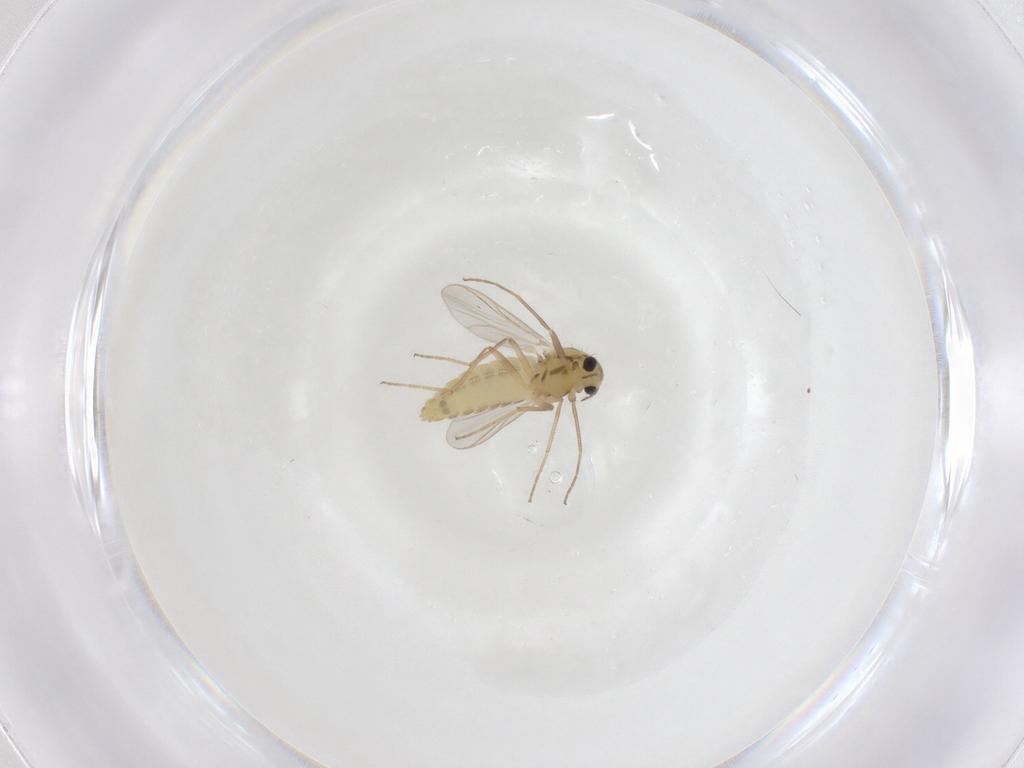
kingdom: Animalia
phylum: Arthropoda
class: Insecta
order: Diptera
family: Chironomidae
